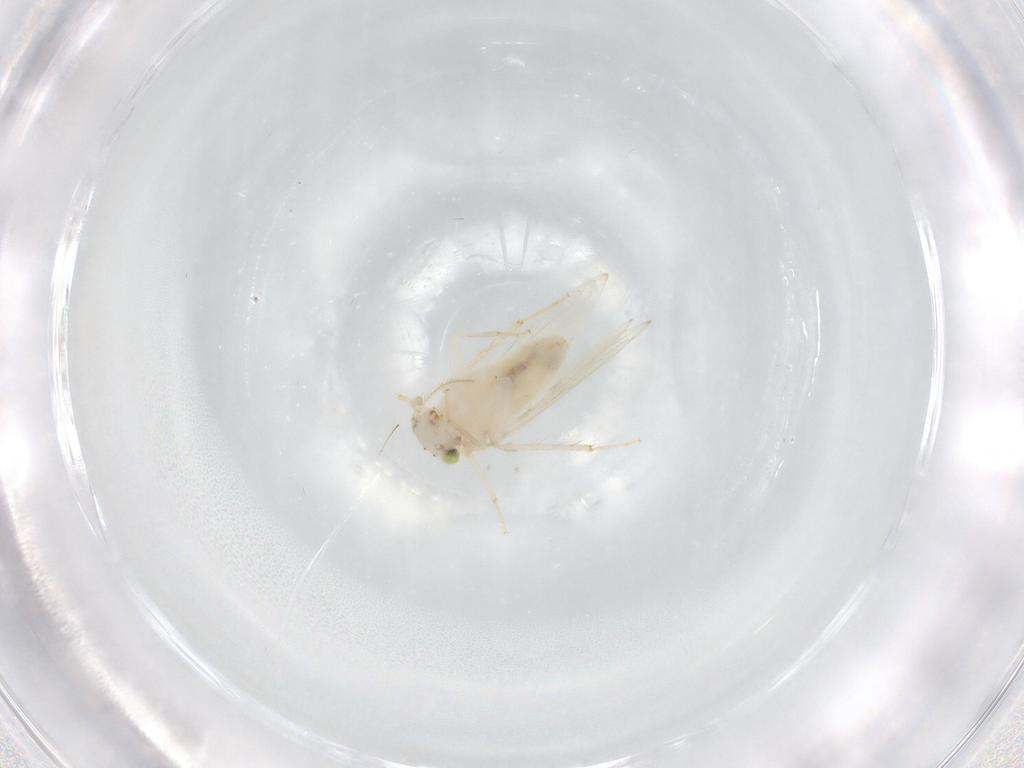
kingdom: Animalia
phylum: Arthropoda
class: Insecta
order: Psocodea
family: Lepidopsocidae
